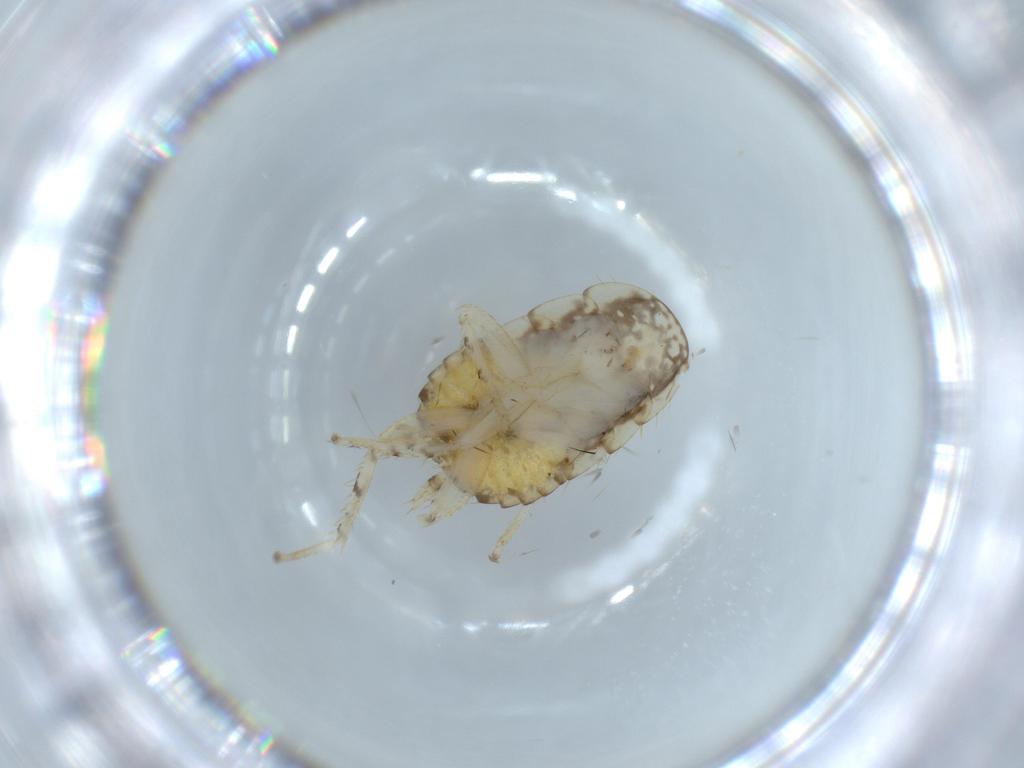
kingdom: Animalia
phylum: Arthropoda
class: Insecta
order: Blattodea
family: Ectobiidae
